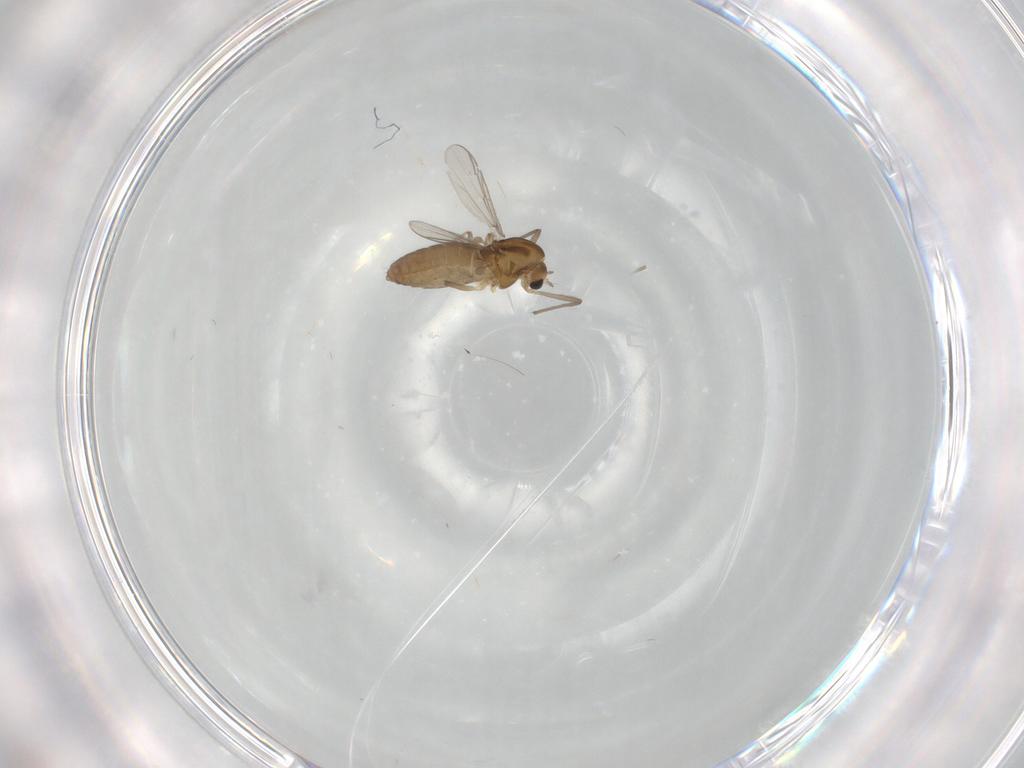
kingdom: Animalia
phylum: Arthropoda
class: Insecta
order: Diptera
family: Chironomidae
